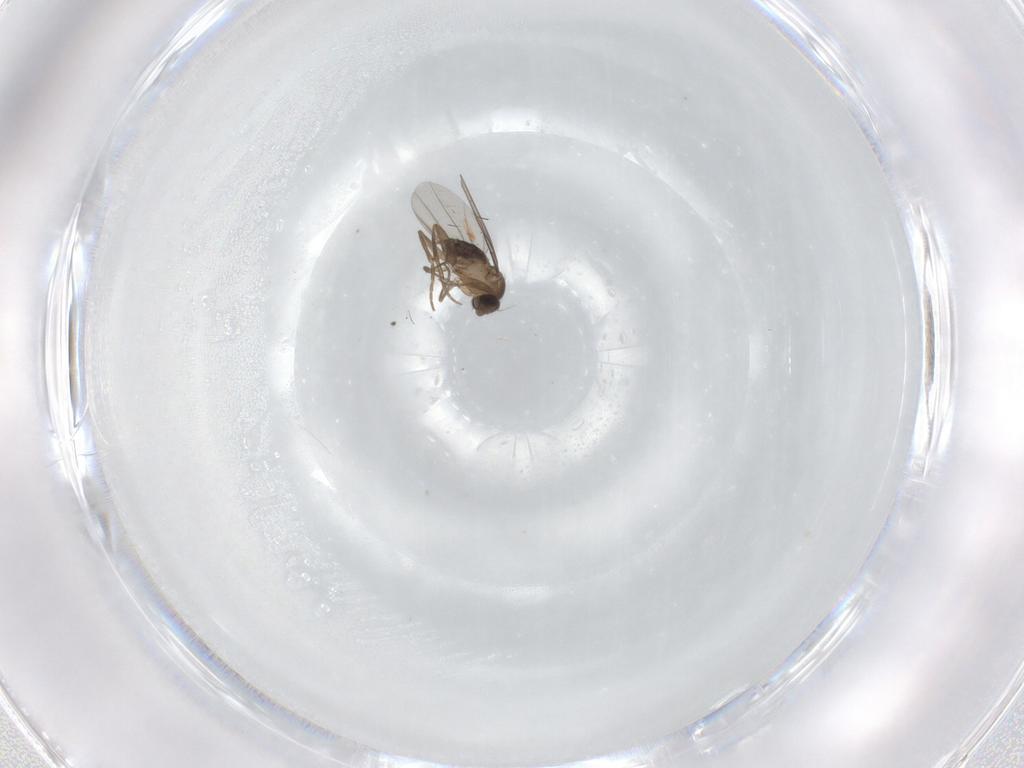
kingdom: Animalia
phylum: Arthropoda
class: Insecta
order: Diptera
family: Phoridae
